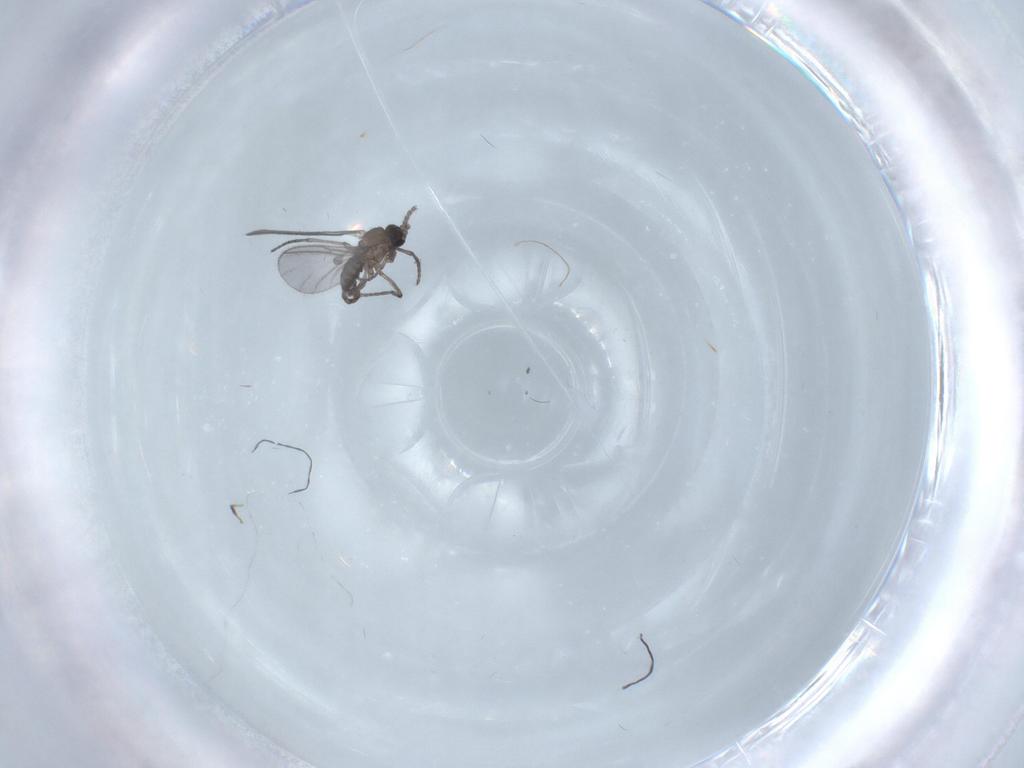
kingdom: Animalia
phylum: Arthropoda
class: Insecta
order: Diptera
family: Sciaridae
